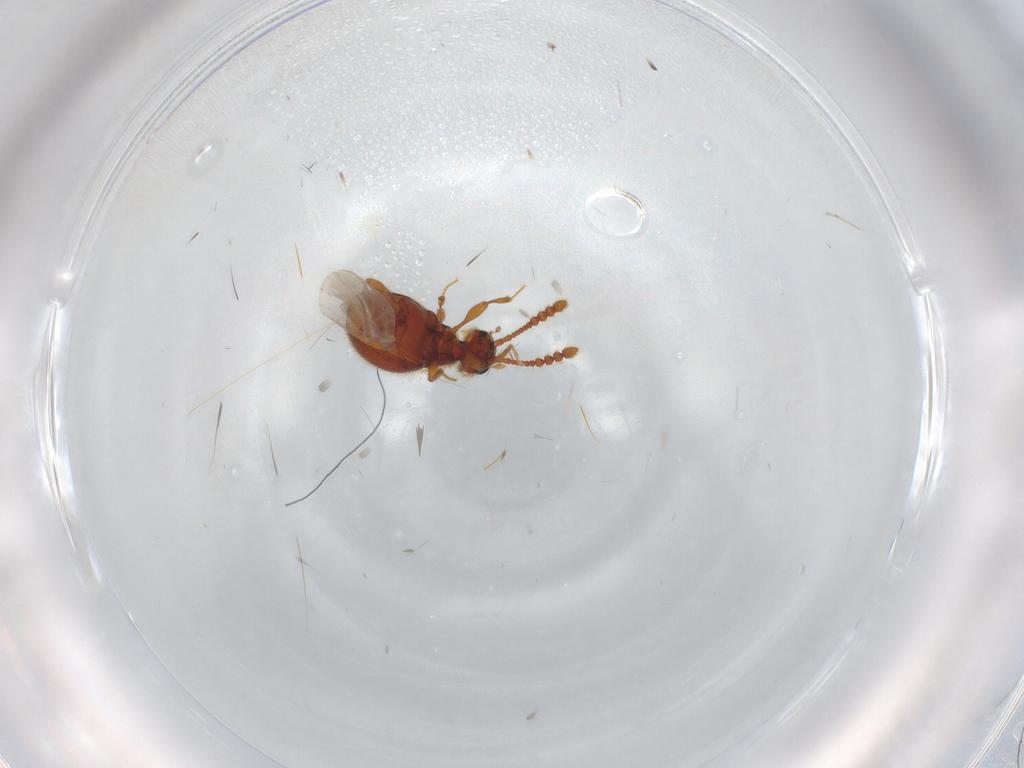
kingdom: Animalia
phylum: Arthropoda
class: Insecta
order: Coleoptera
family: Staphylinidae
